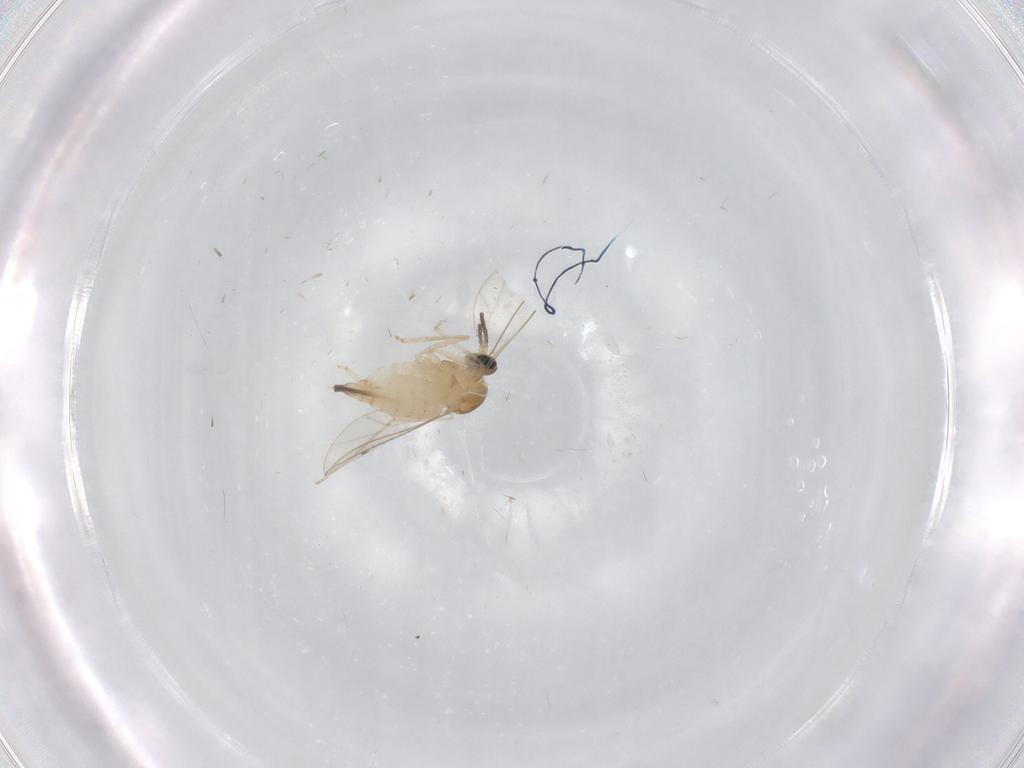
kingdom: Animalia
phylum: Arthropoda
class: Insecta
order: Diptera
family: Cecidomyiidae
